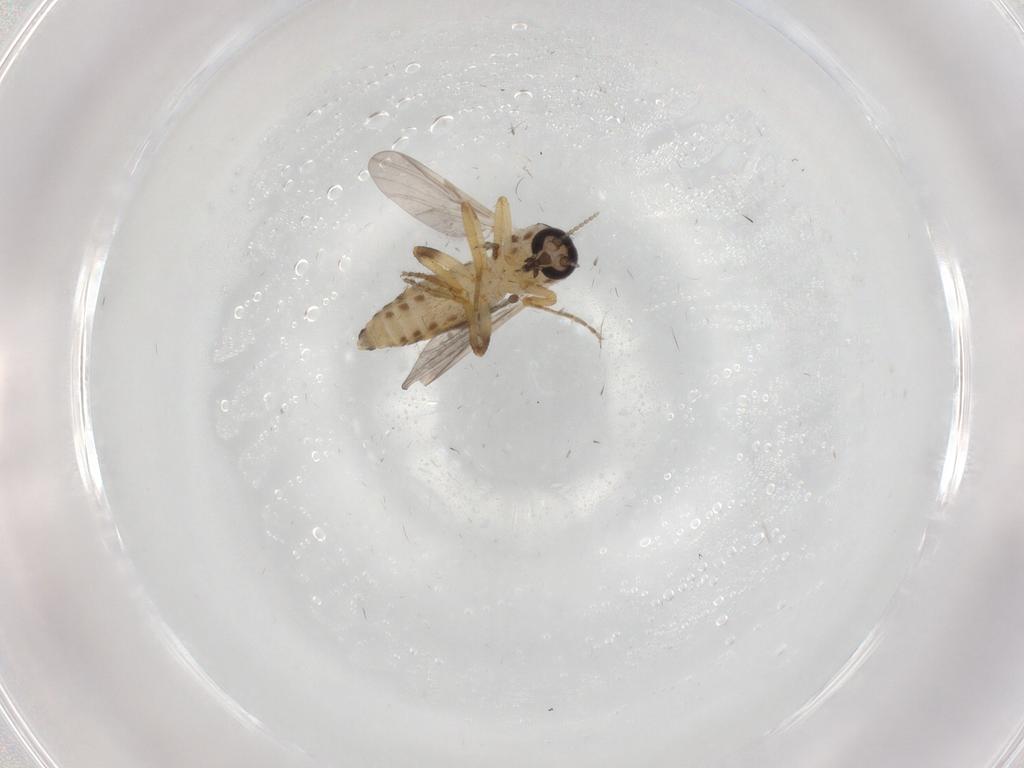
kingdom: Animalia
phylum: Arthropoda
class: Insecta
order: Diptera
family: Ceratopogonidae
